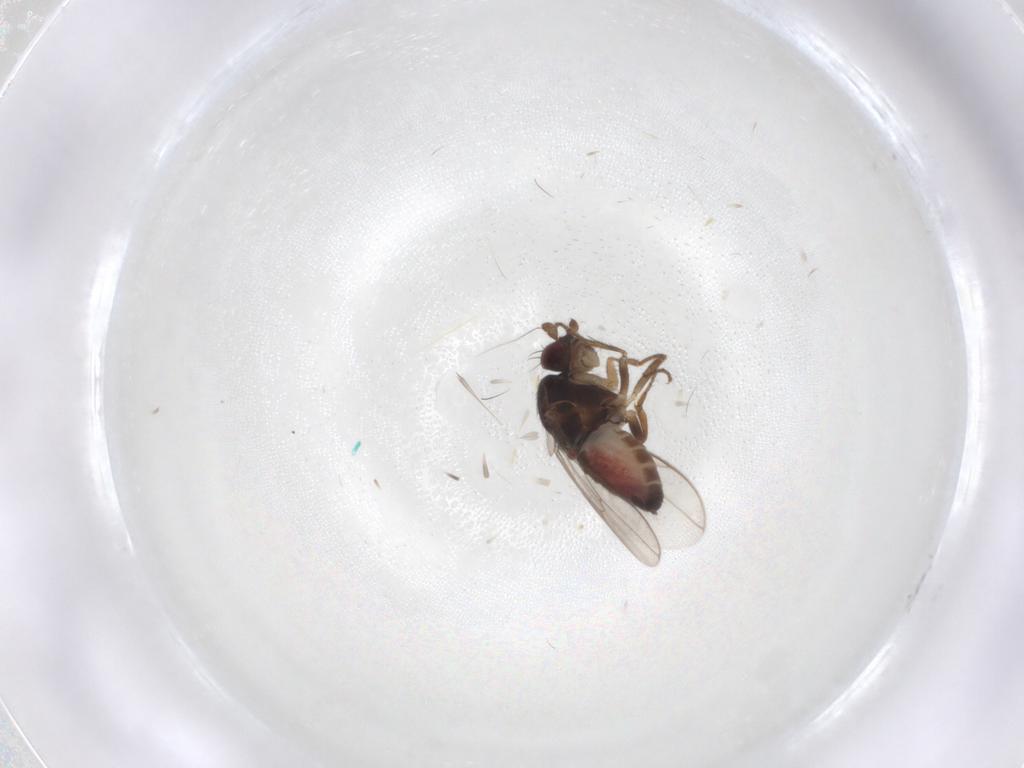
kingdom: Animalia
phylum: Arthropoda
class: Insecta
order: Diptera
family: Sphaeroceridae
